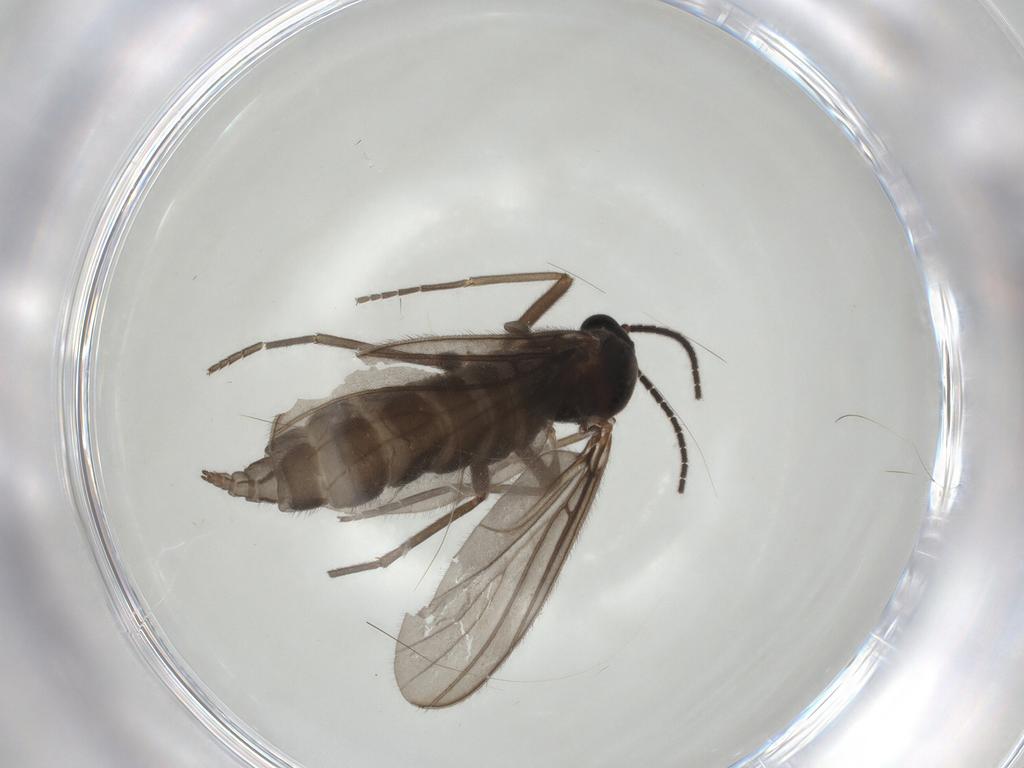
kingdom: Animalia
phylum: Arthropoda
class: Insecta
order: Diptera
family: Sciaridae
